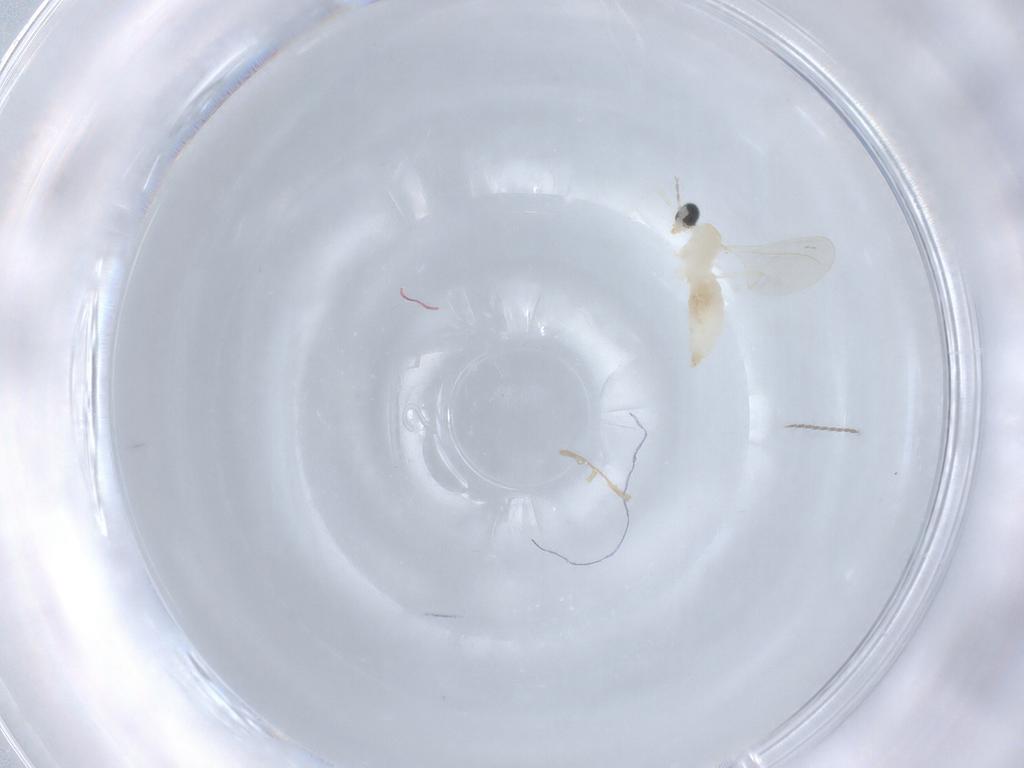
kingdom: Animalia
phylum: Arthropoda
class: Insecta
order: Diptera
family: Cecidomyiidae
